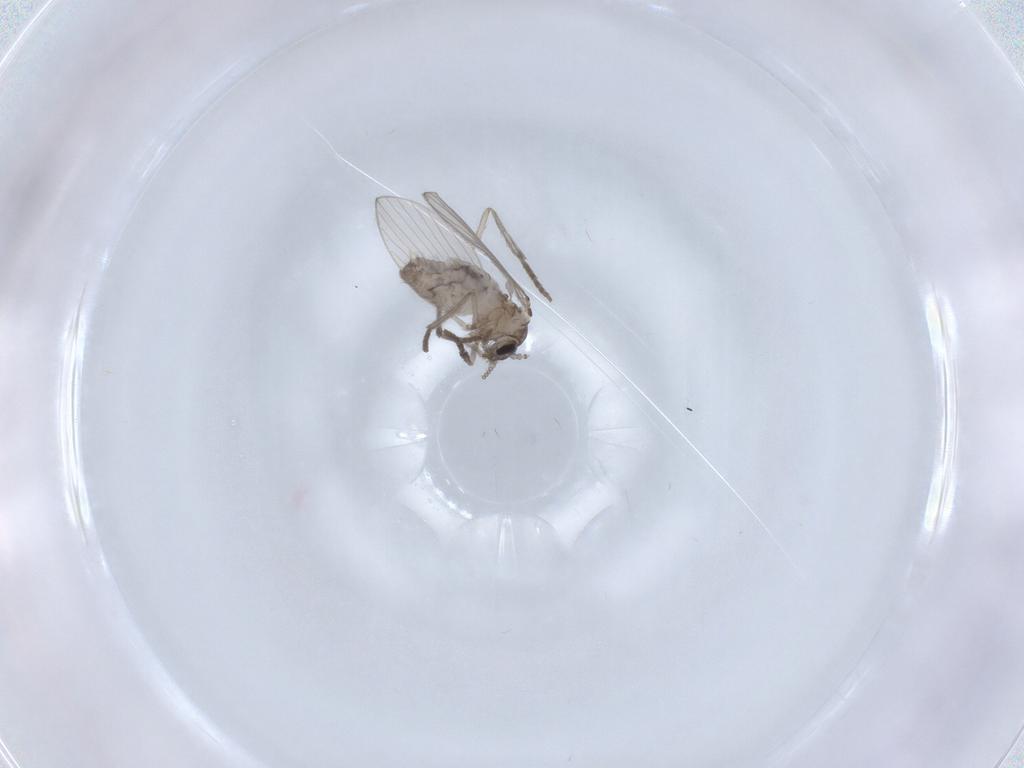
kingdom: Animalia
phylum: Arthropoda
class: Insecta
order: Diptera
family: Psychodidae
